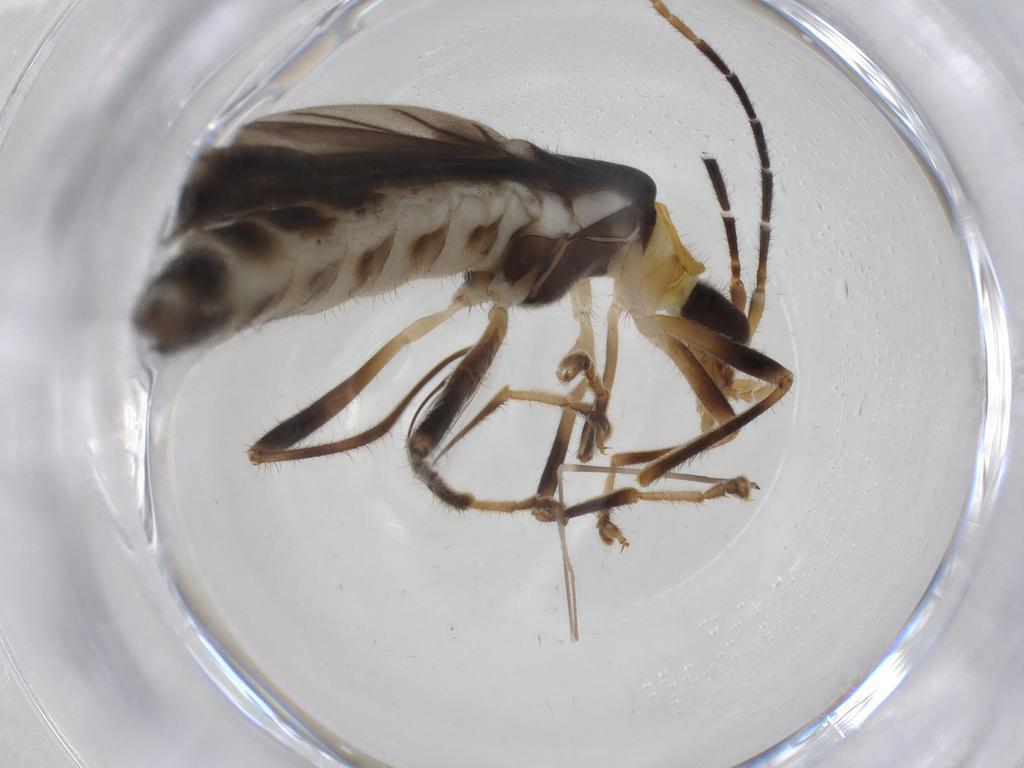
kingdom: Animalia
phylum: Arthropoda
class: Insecta
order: Coleoptera
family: Cantharidae
